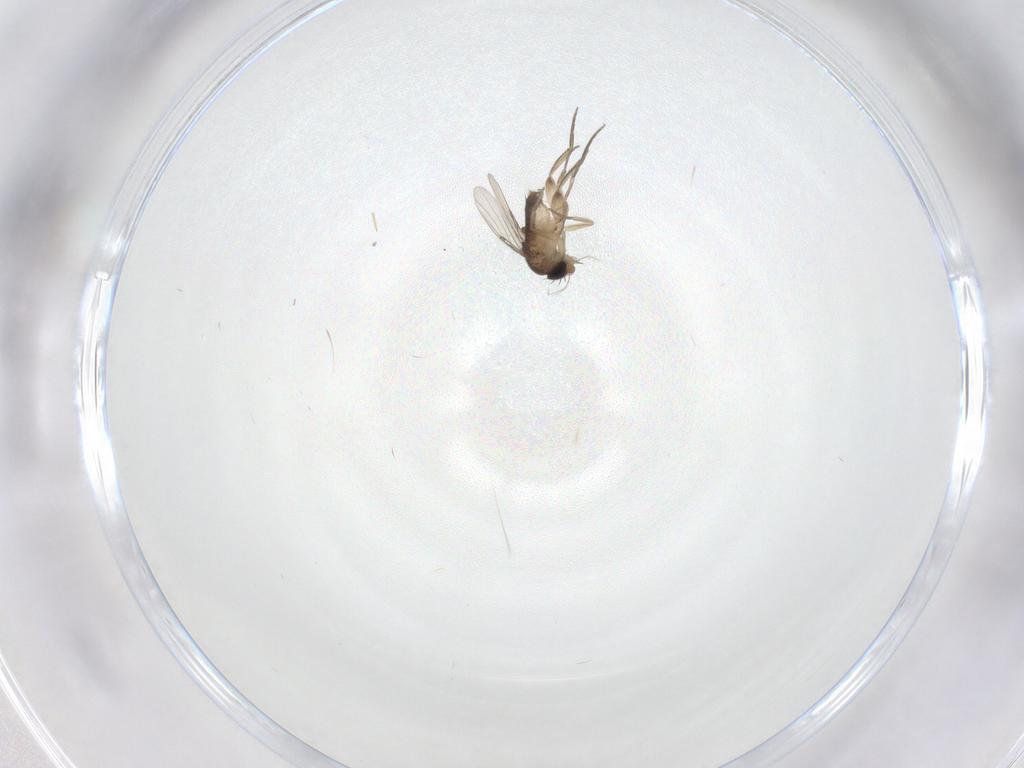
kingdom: Animalia
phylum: Arthropoda
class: Insecta
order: Diptera
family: Phoridae
